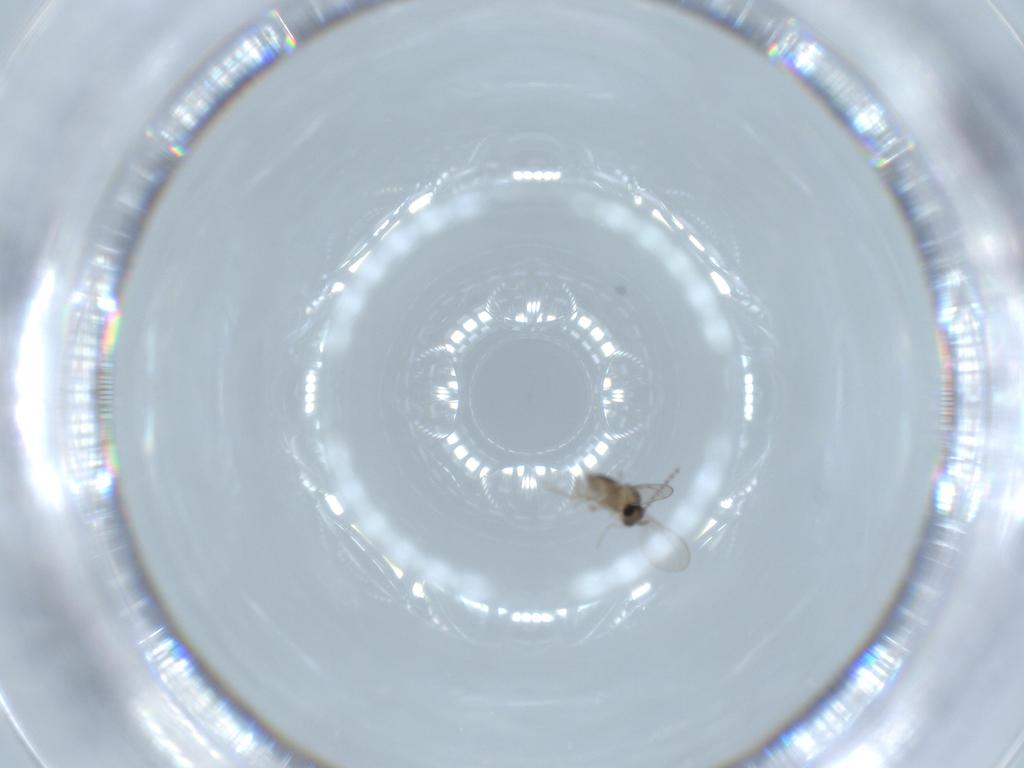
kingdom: Animalia
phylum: Arthropoda
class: Insecta
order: Diptera
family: Cecidomyiidae
